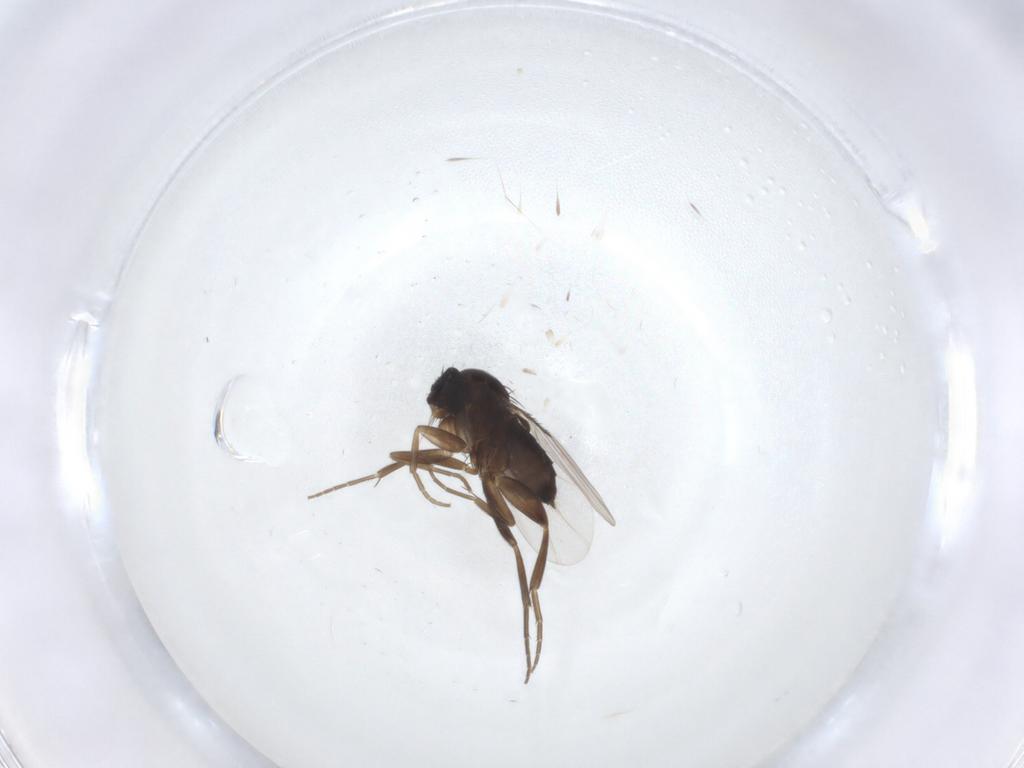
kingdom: Animalia
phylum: Arthropoda
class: Insecta
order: Diptera
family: Phoridae
